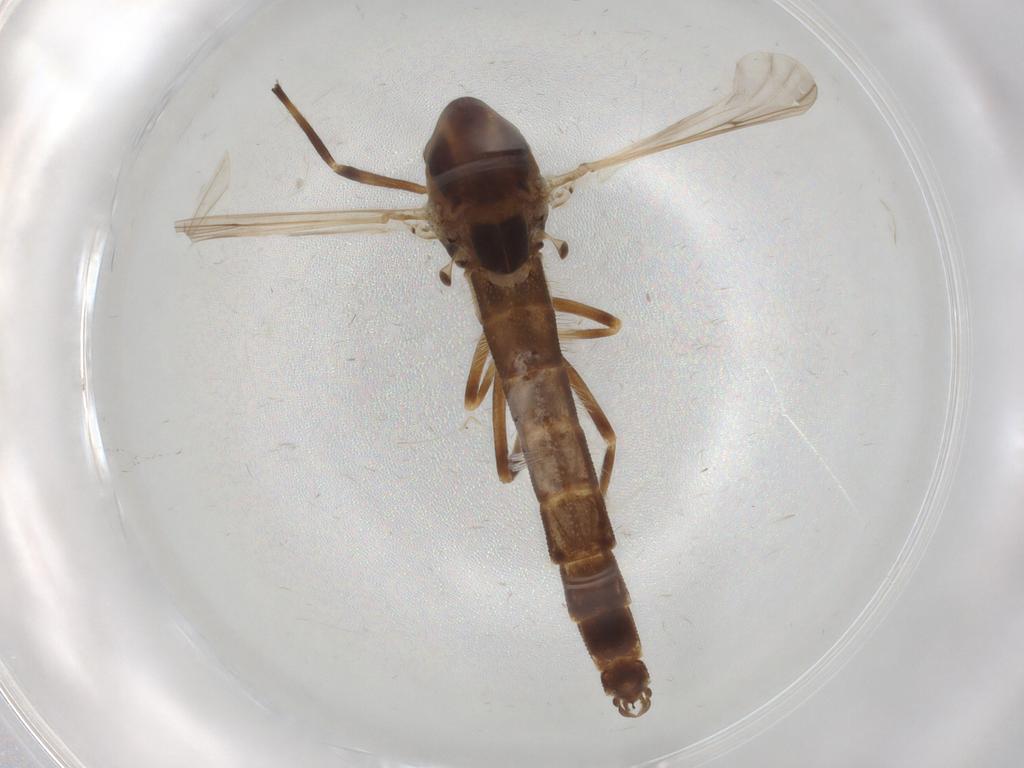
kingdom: Animalia
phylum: Arthropoda
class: Insecta
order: Diptera
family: Chironomidae
